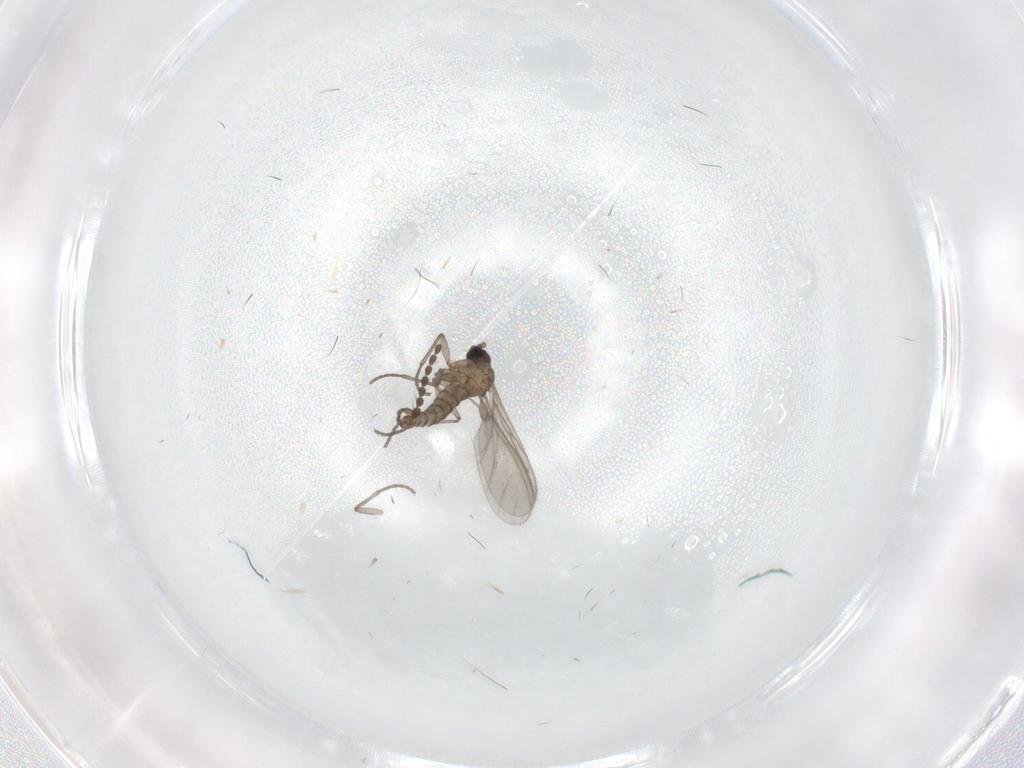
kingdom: Animalia
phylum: Arthropoda
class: Insecta
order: Diptera
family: Sciaridae
